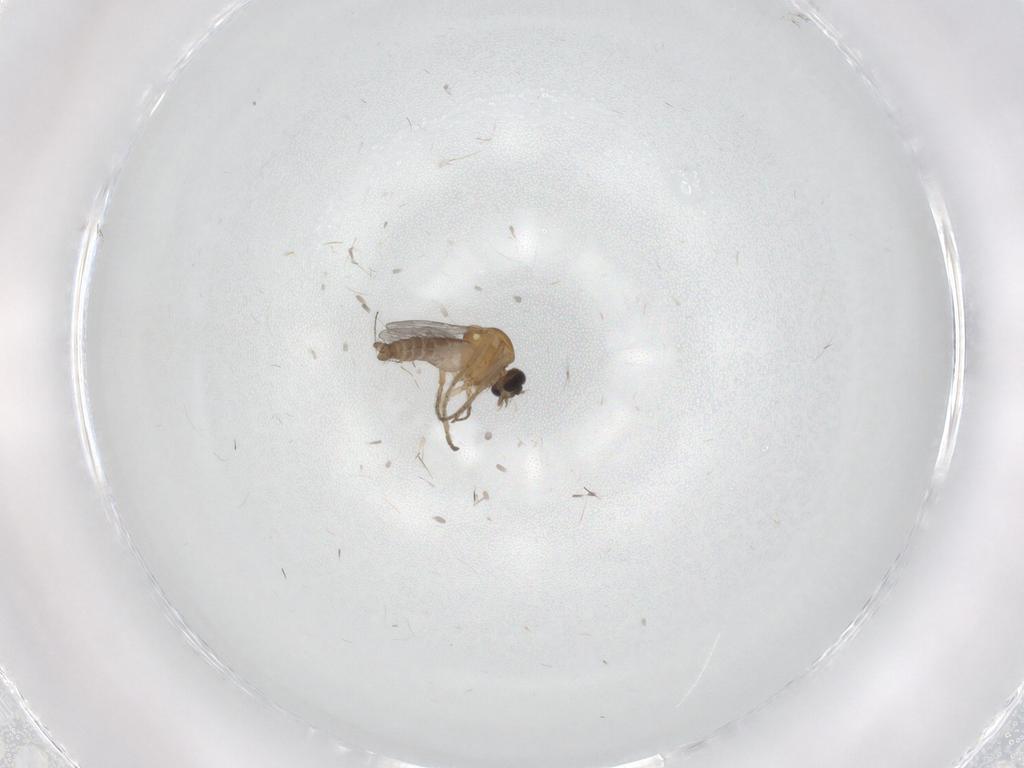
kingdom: Animalia
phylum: Arthropoda
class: Insecta
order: Diptera
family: Ceratopogonidae
